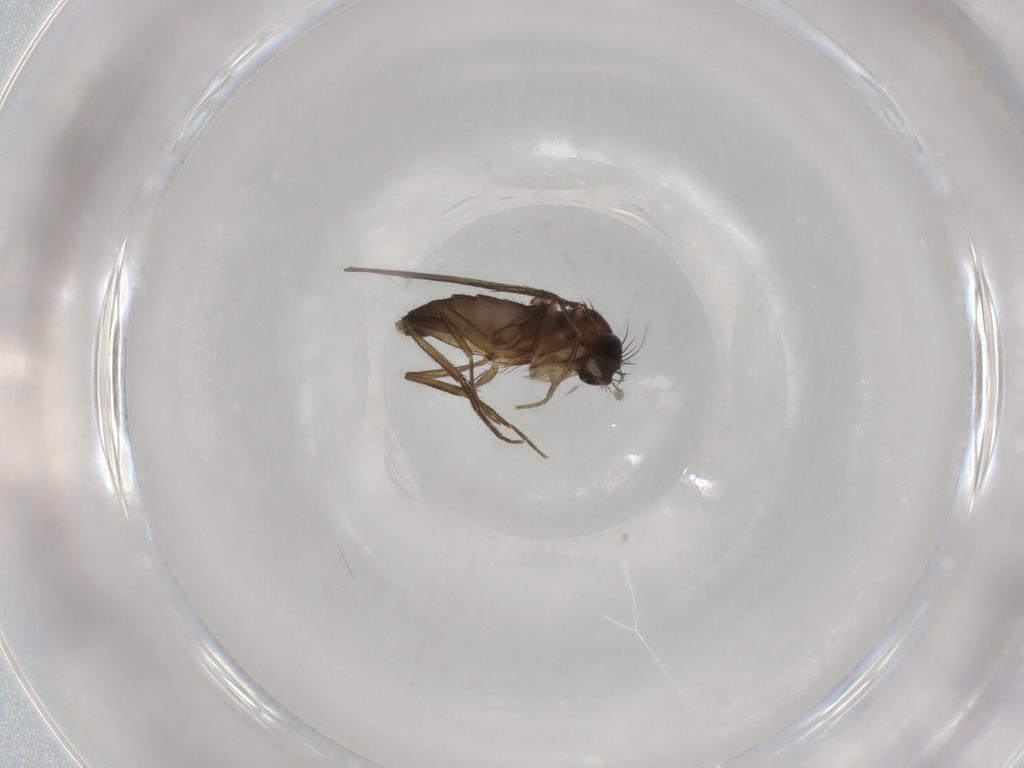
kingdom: Animalia
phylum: Arthropoda
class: Insecta
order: Diptera
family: Phoridae
